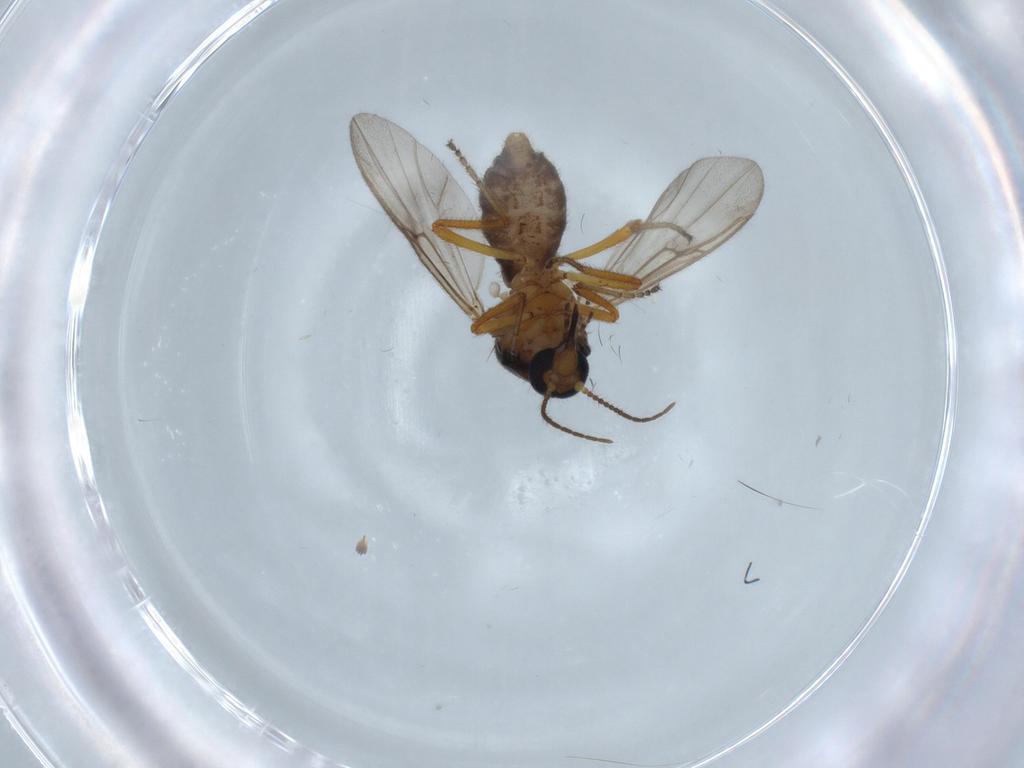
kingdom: Animalia
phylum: Arthropoda
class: Insecta
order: Diptera
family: Ceratopogonidae
